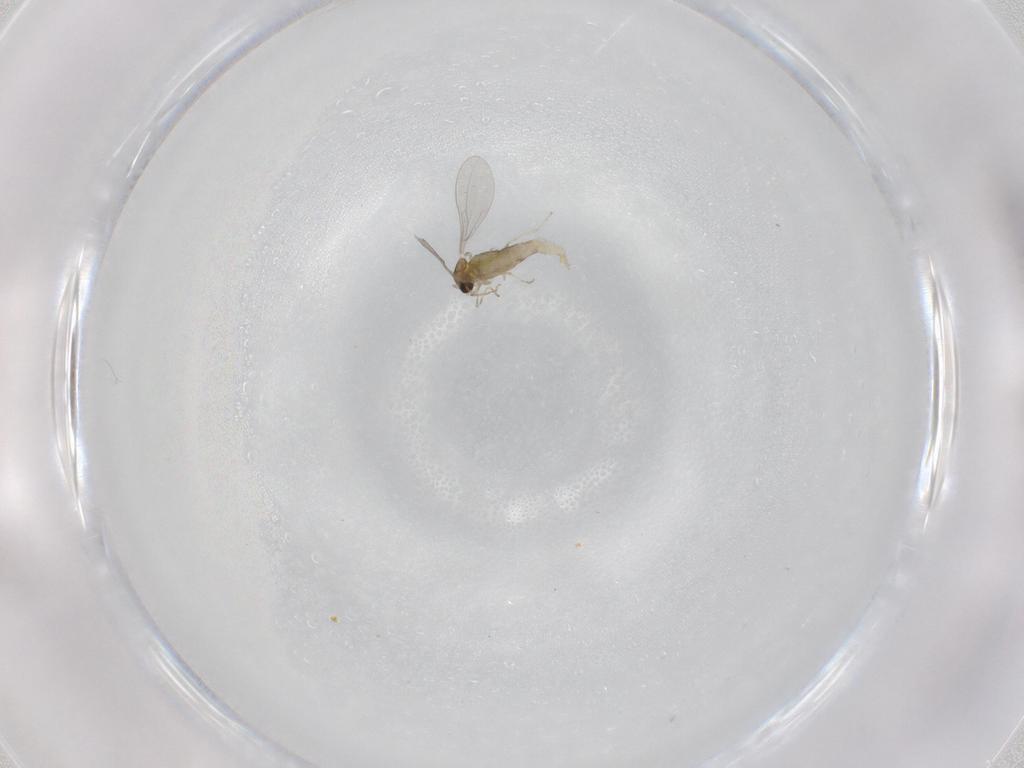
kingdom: Animalia
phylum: Arthropoda
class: Insecta
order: Diptera
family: Cecidomyiidae
